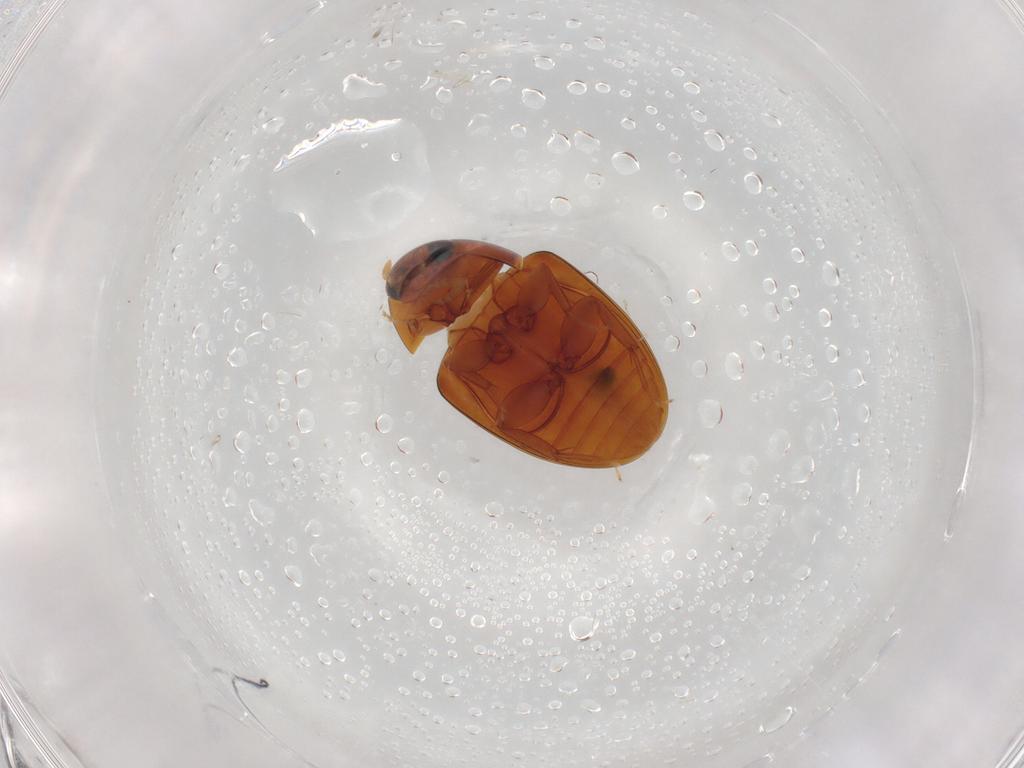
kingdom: Animalia
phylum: Arthropoda
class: Insecta
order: Coleoptera
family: Phalacridae
